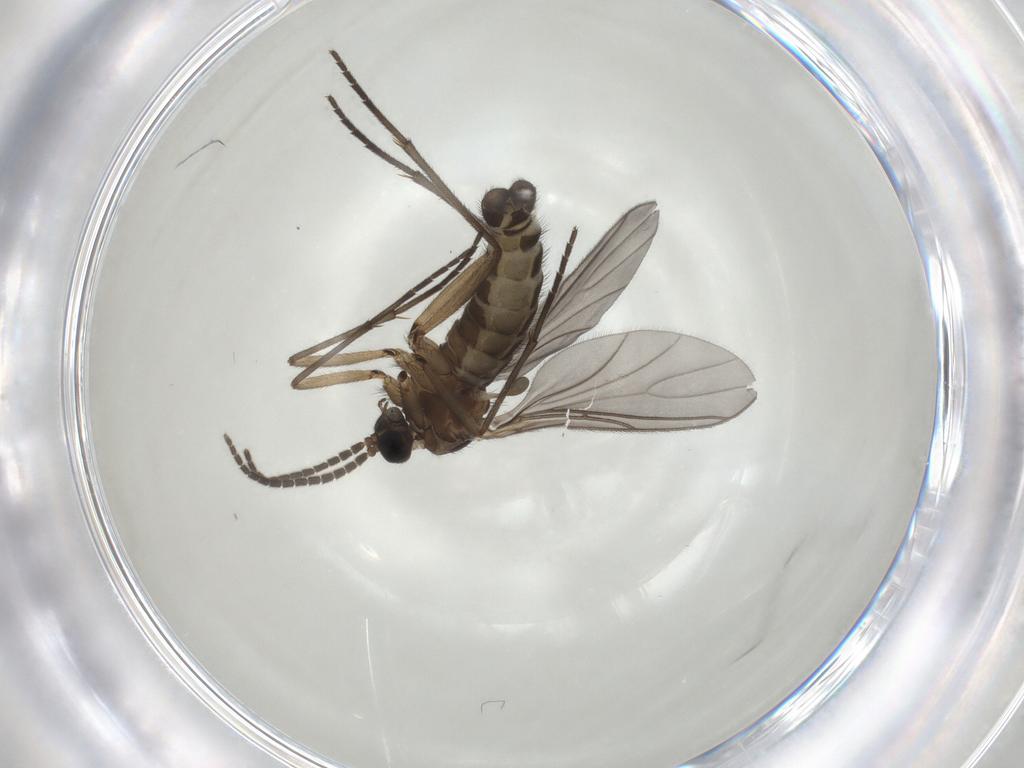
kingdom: Animalia
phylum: Arthropoda
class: Insecta
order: Diptera
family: Sciaridae
